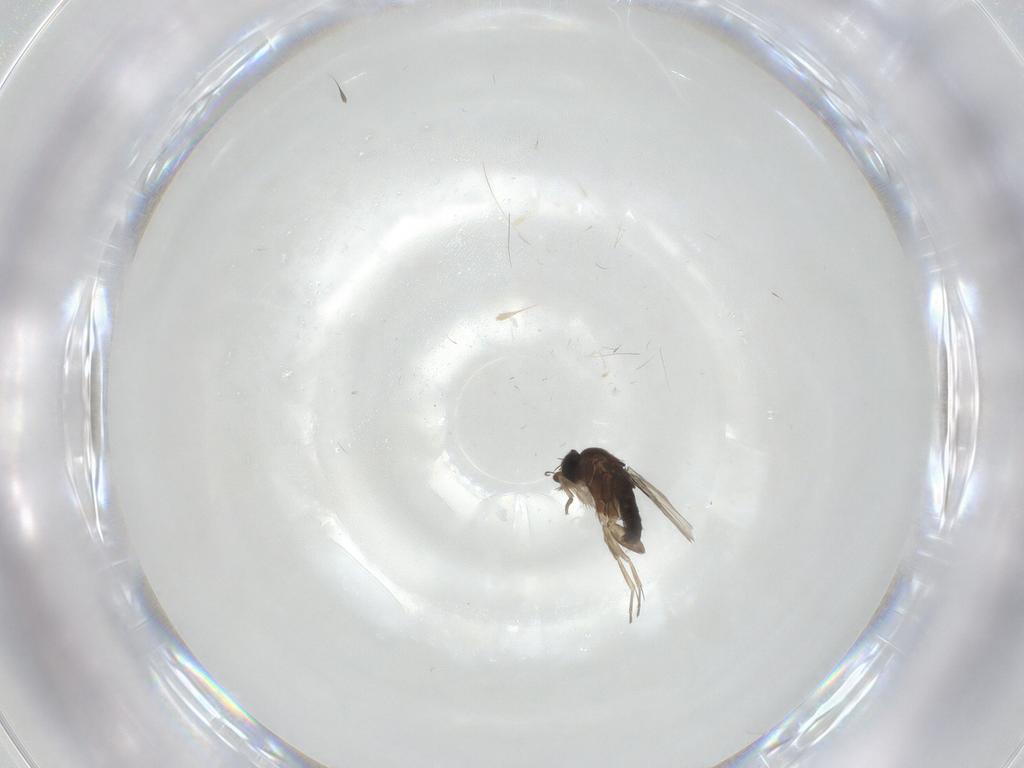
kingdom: Animalia
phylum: Arthropoda
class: Insecta
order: Diptera
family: Phoridae
